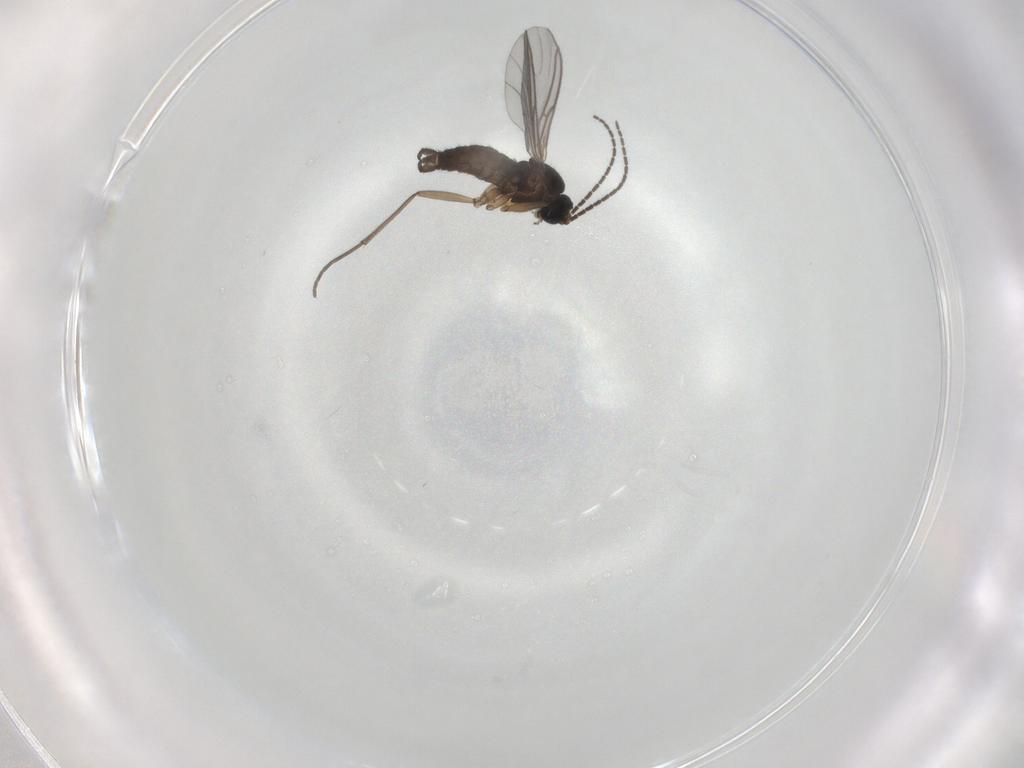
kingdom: Animalia
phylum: Arthropoda
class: Insecta
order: Diptera
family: Sciaridae
